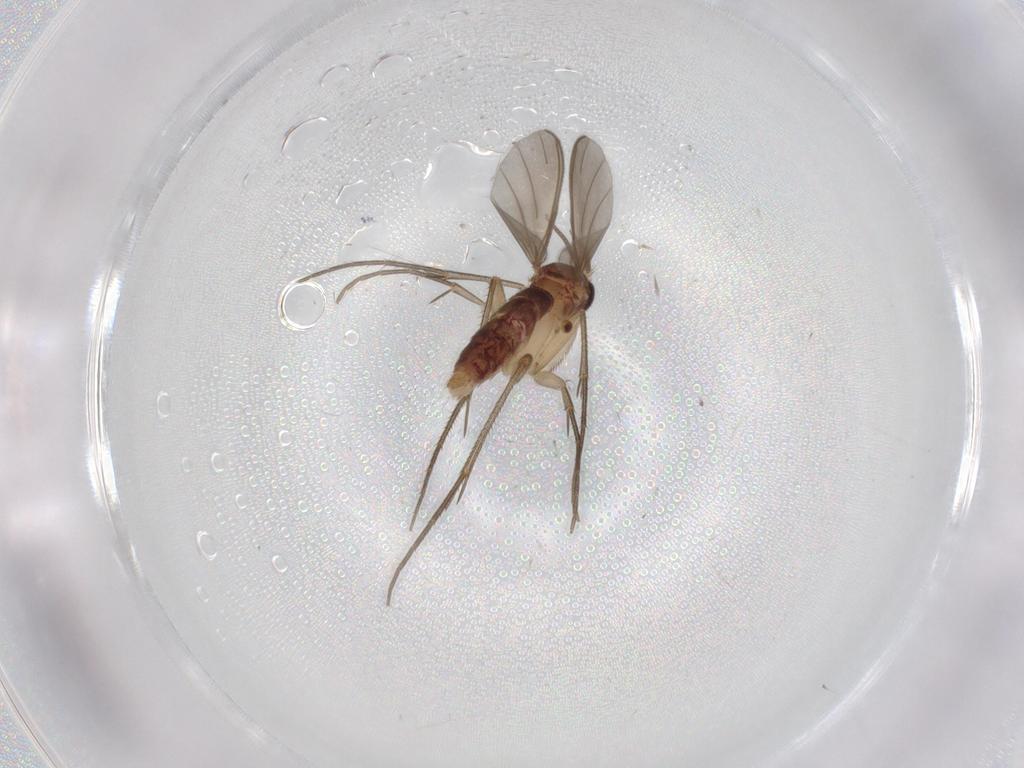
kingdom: Animalia
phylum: Arthropoda
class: Insecta
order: Diptera
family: Mycetophilidae
